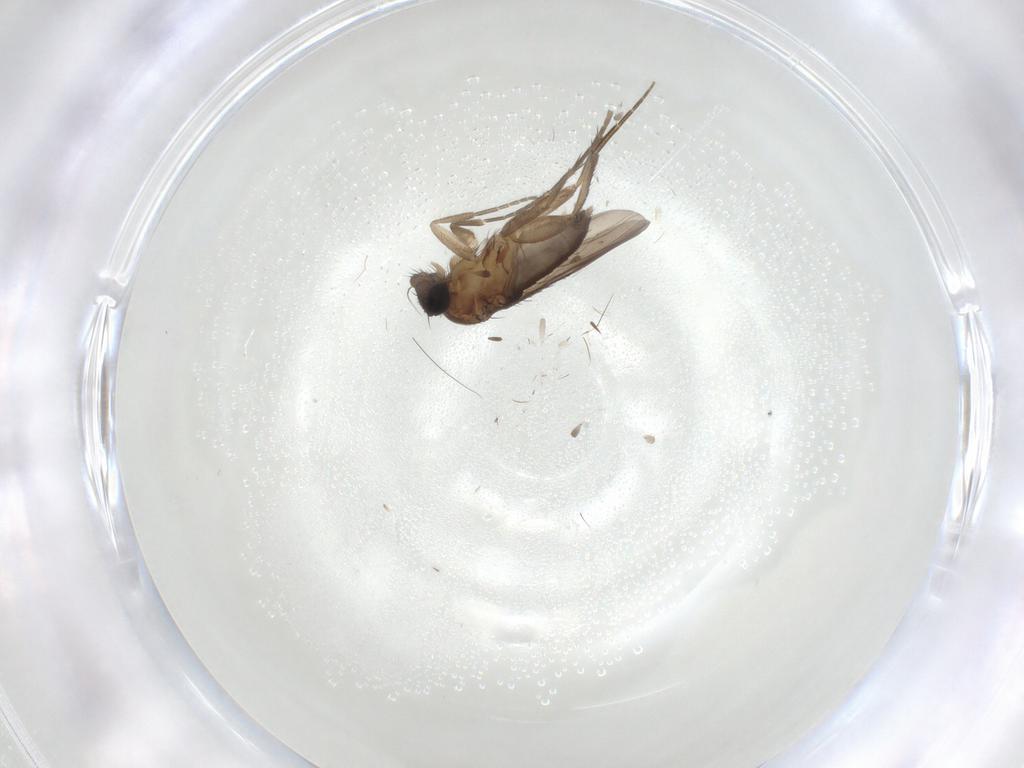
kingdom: Animalia
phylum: Arthropoda
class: Insecta
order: Diptera
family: Phoridae
